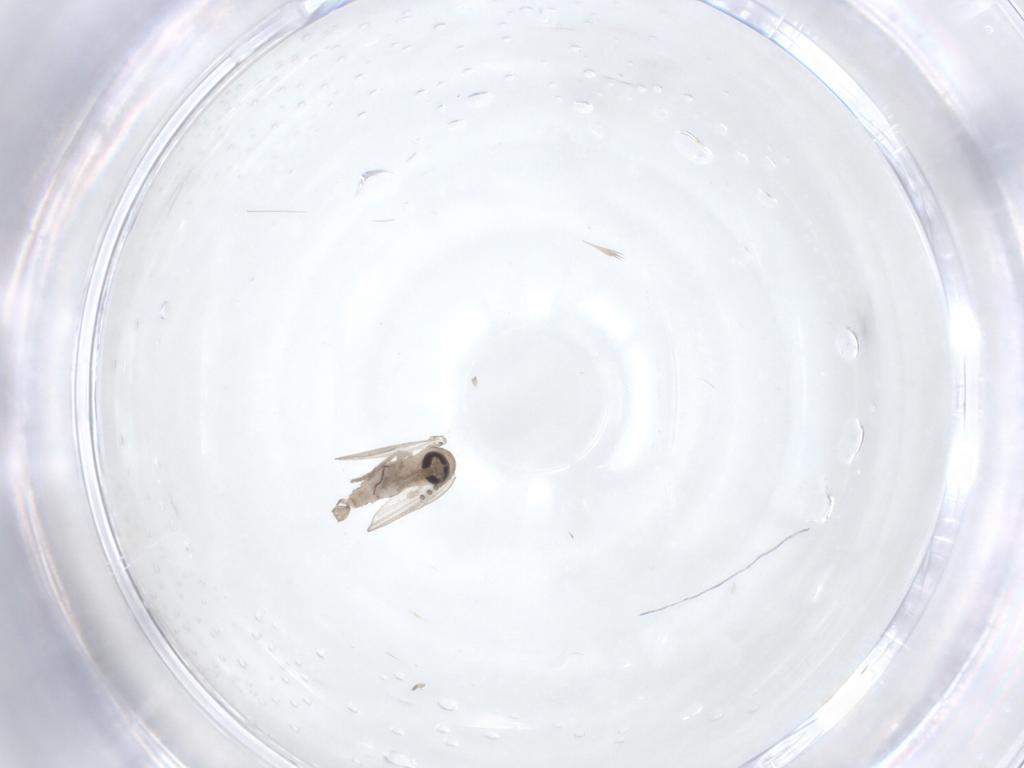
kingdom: Animalia
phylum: Arthropoda
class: Insecta
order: Diptera
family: Psychodidae
